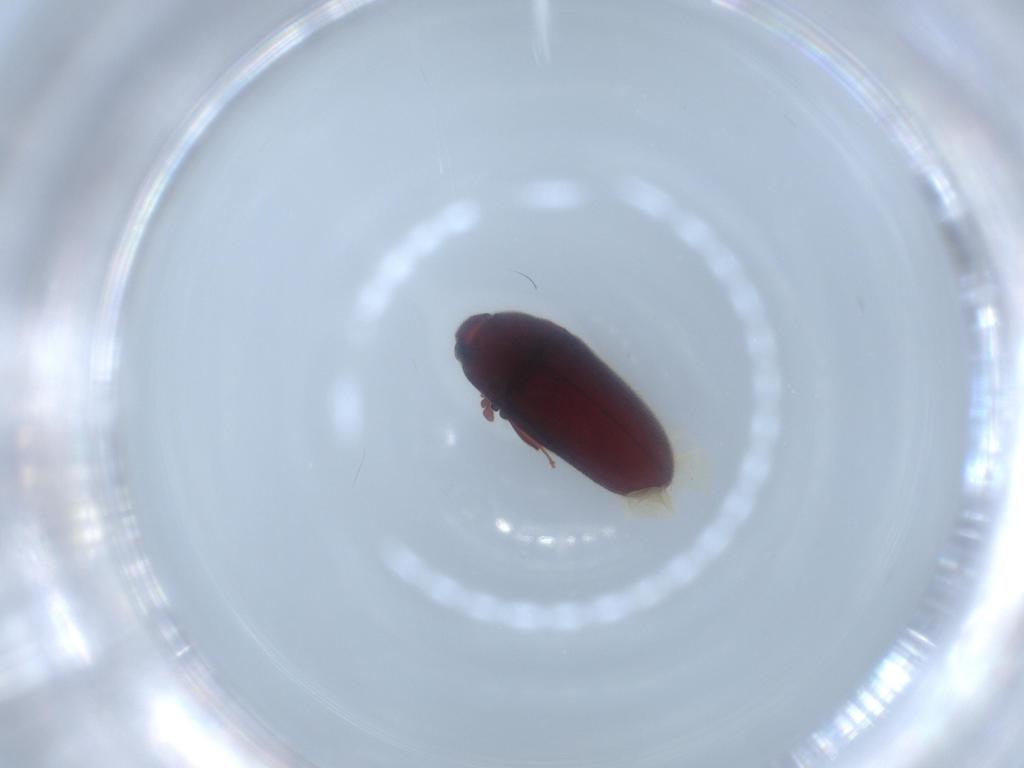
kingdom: Animalia
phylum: Arthropoda
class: Insecta
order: Coleoptera
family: Throscidae
